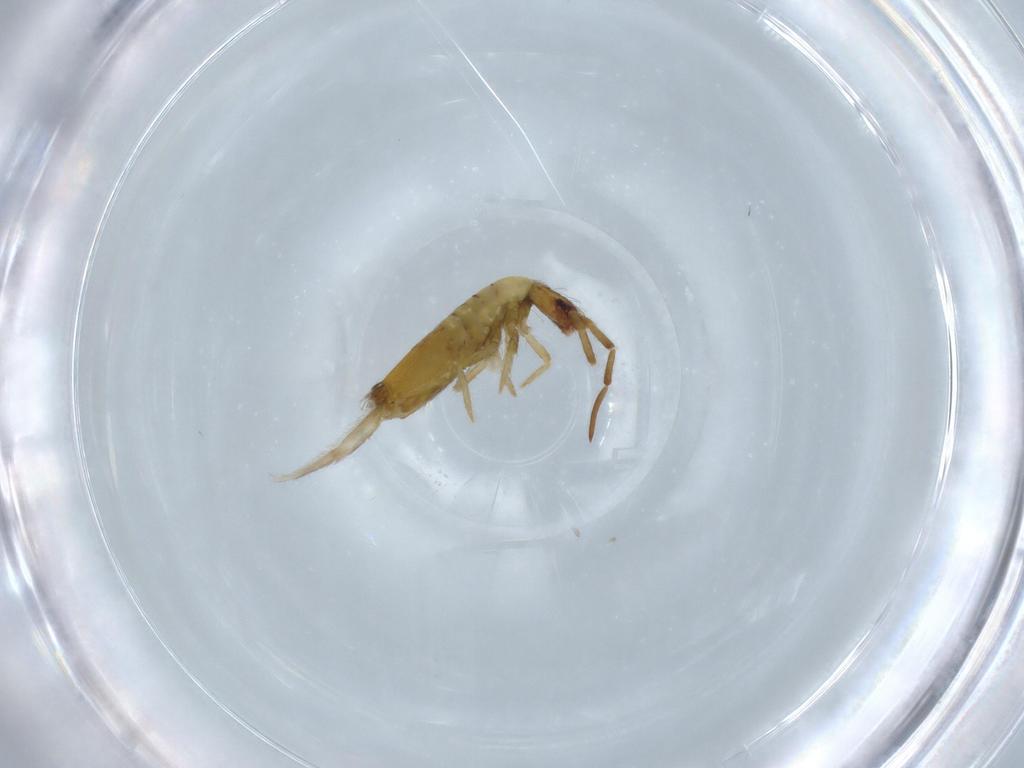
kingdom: Animalia
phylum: Arthropoda
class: Collembola
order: Entomobryomorpha
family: Entomobryidae
